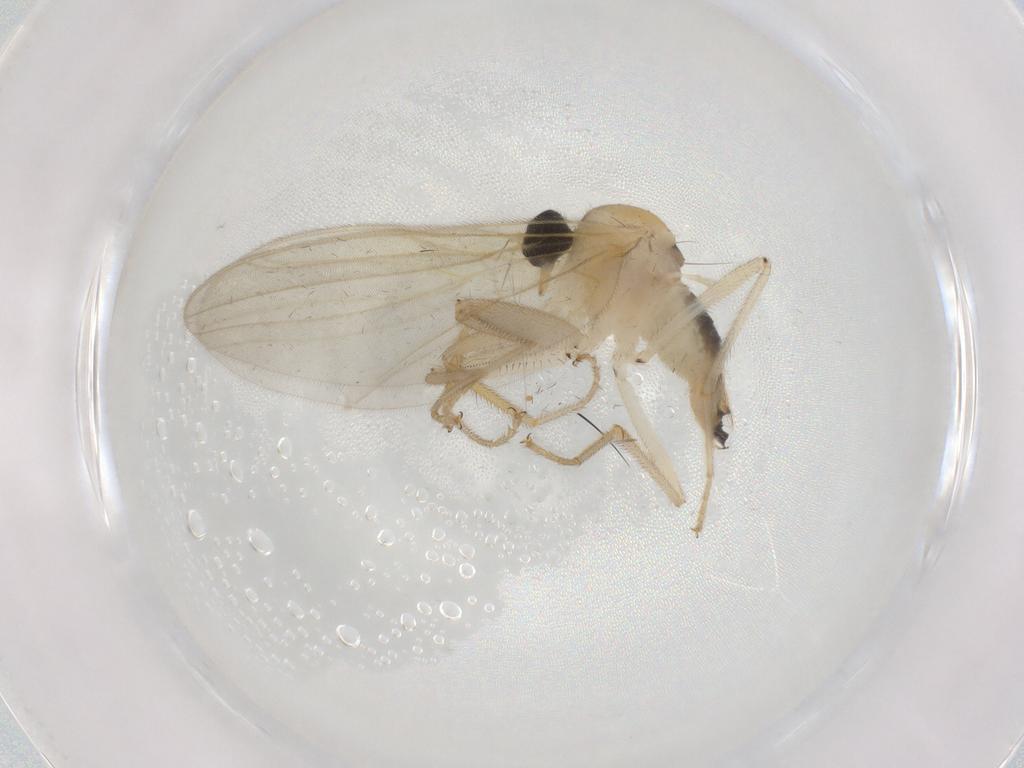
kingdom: Animalia
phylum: Arthropoda
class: Insecta
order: Diptera
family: Hybotidae
